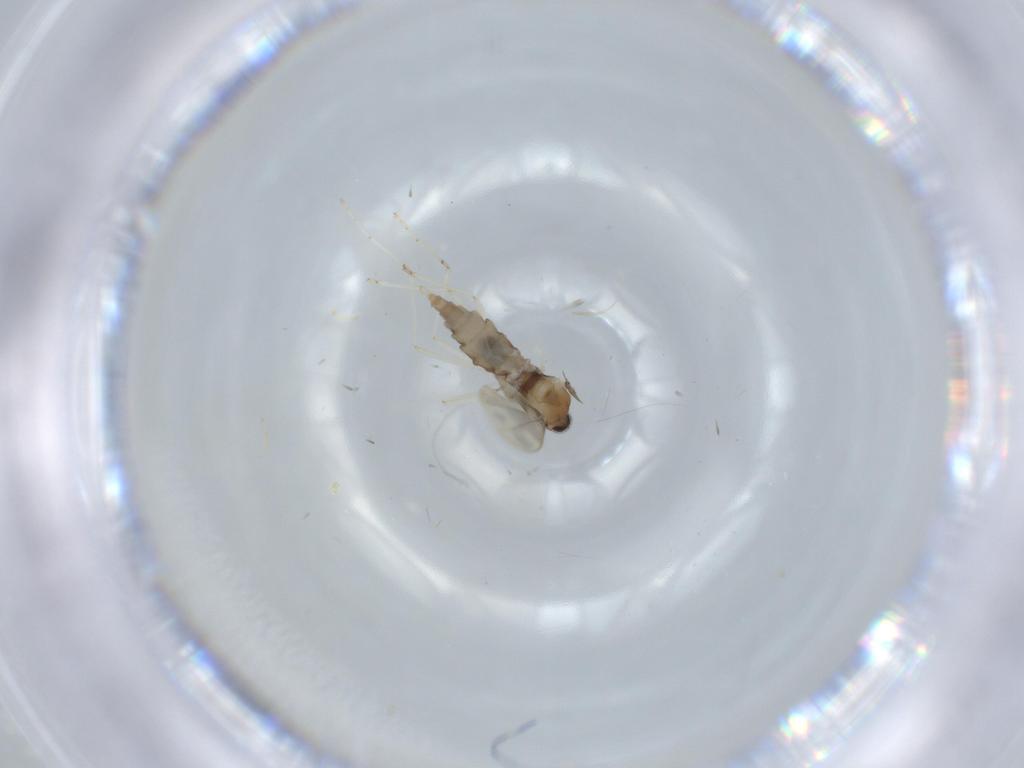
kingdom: Animalia
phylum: Arthropoda
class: Insecta
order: Diptera
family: Cecidomyiidae
